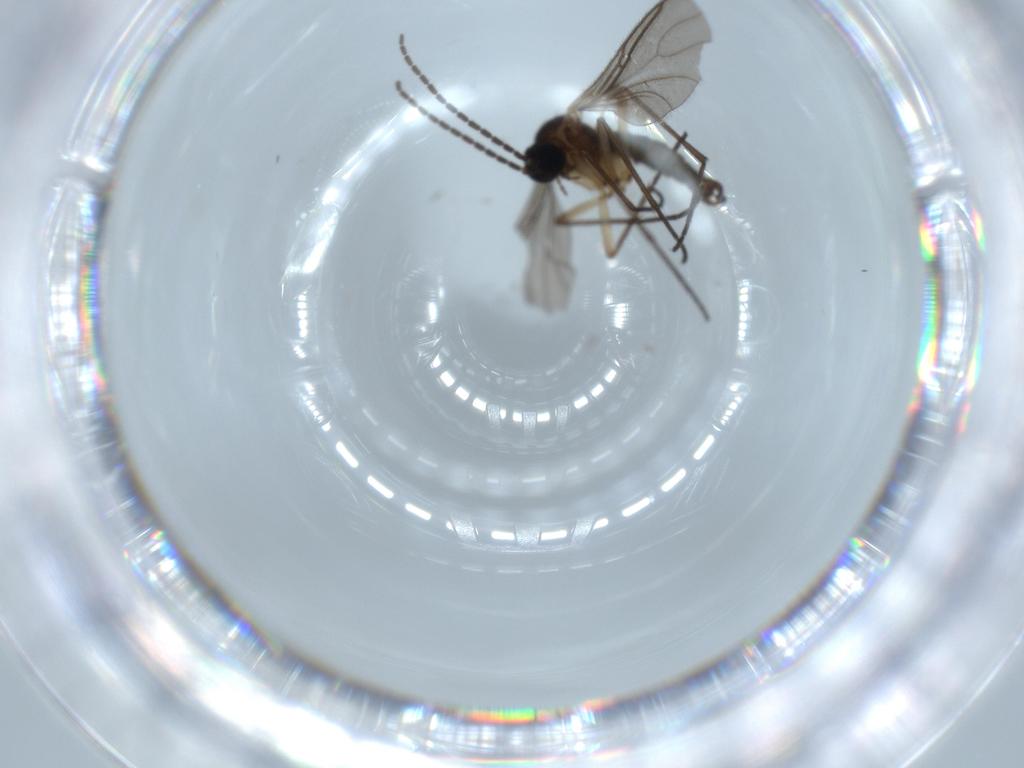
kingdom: Animalia
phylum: Arthropoda
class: Insecta
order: Diptera
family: Sciaridae
